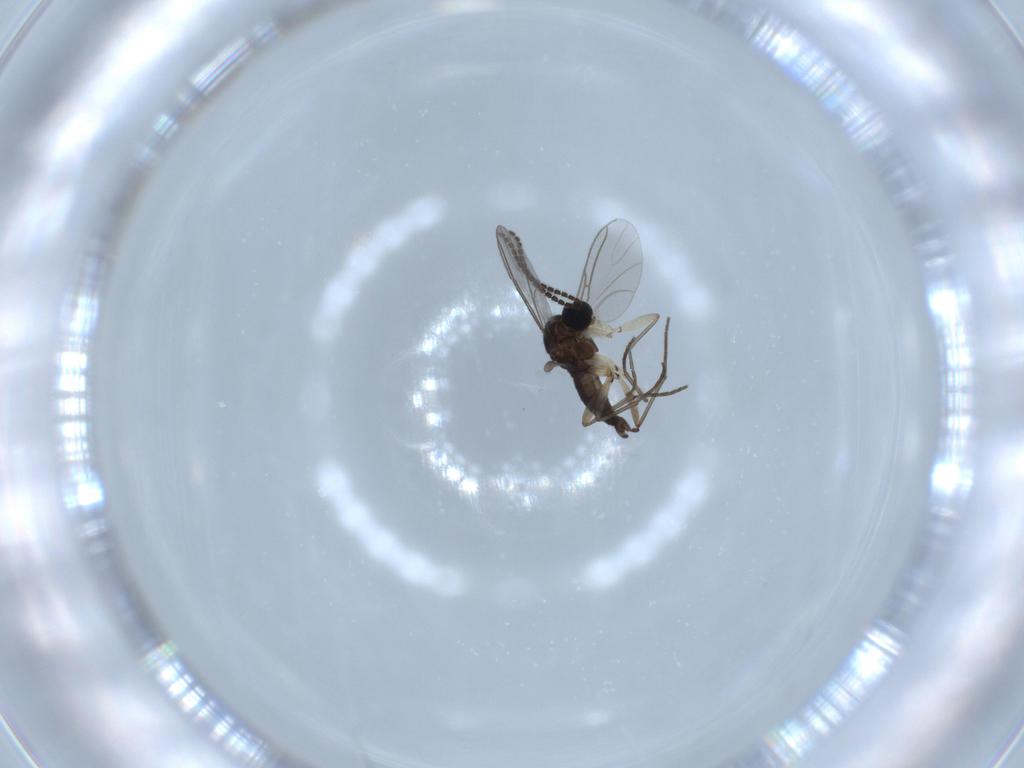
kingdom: Animalia
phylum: Arthropoda
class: Insecta
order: Diptera
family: Sciaridae
